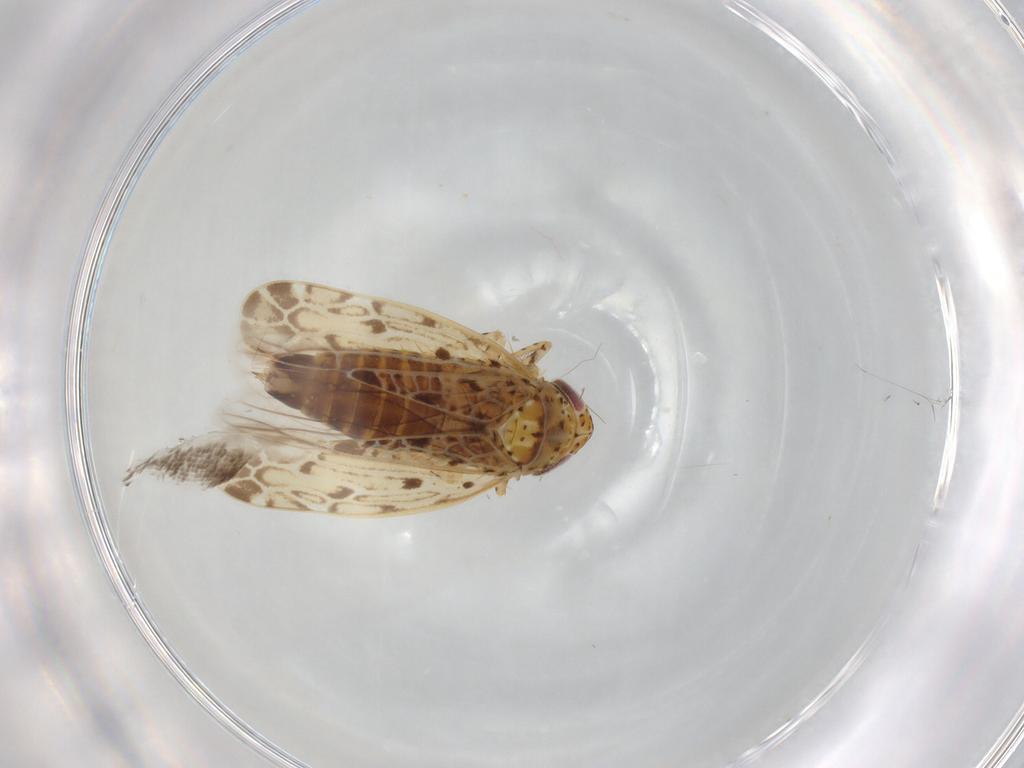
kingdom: Animalia
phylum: Arthropoda
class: Insecta
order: Hemiptera
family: Cicadellidae
